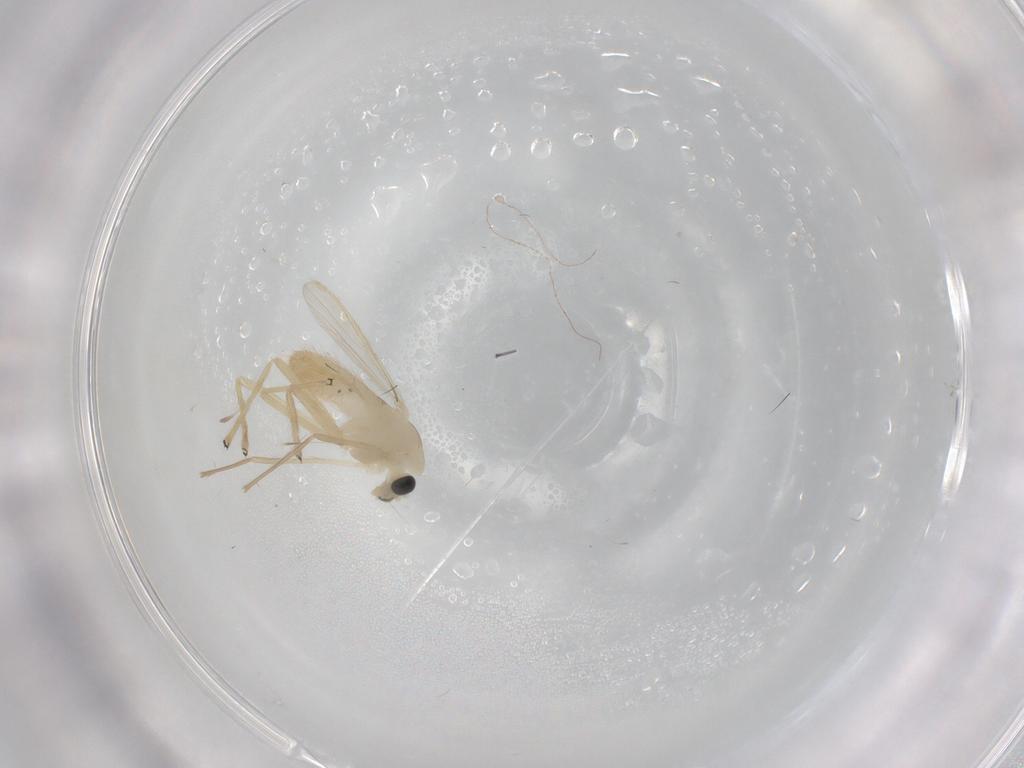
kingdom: Animalia
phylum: Arthropoda
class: Insecta
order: Diptera
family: Chironomidae
